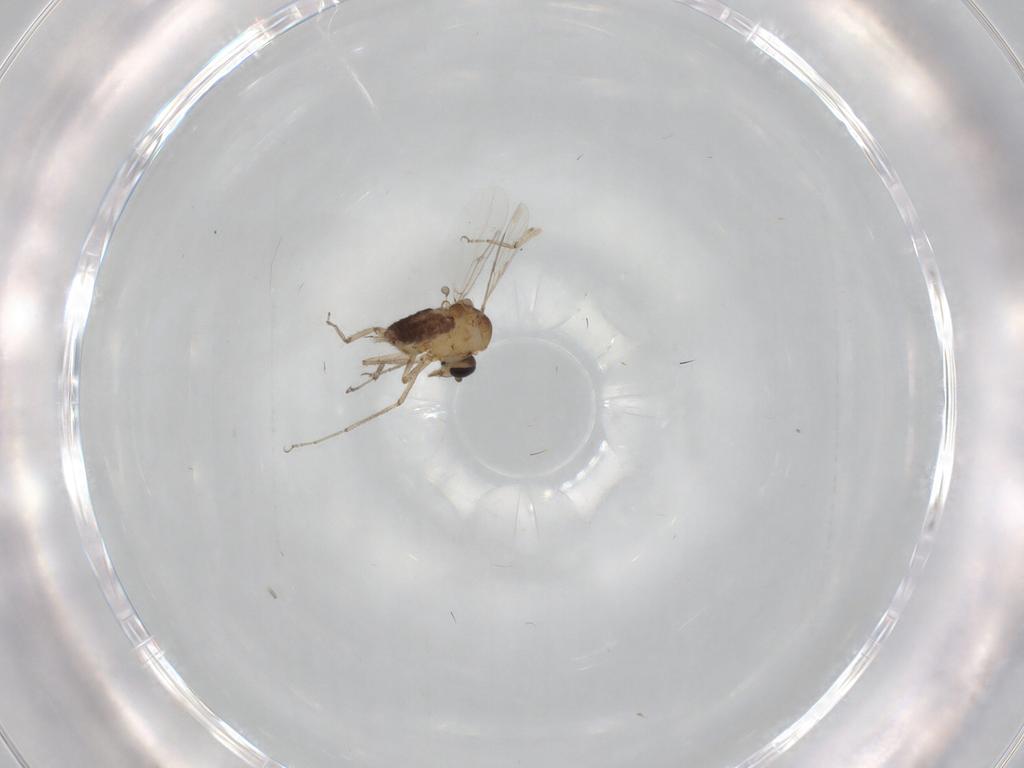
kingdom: Animalia
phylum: Arthropoda
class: Insecta
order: Diptera
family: Ceratopogonidae
